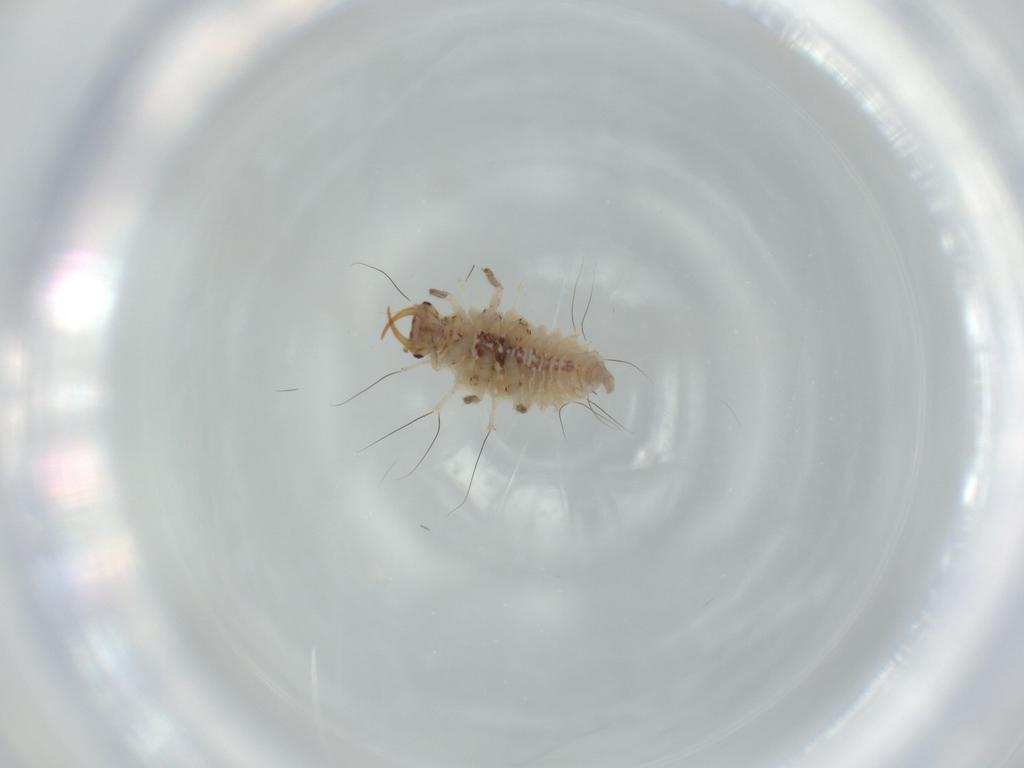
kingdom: Animalia
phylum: Arthropoda
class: Insecta
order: Neuroptera
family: Chrysopidae
